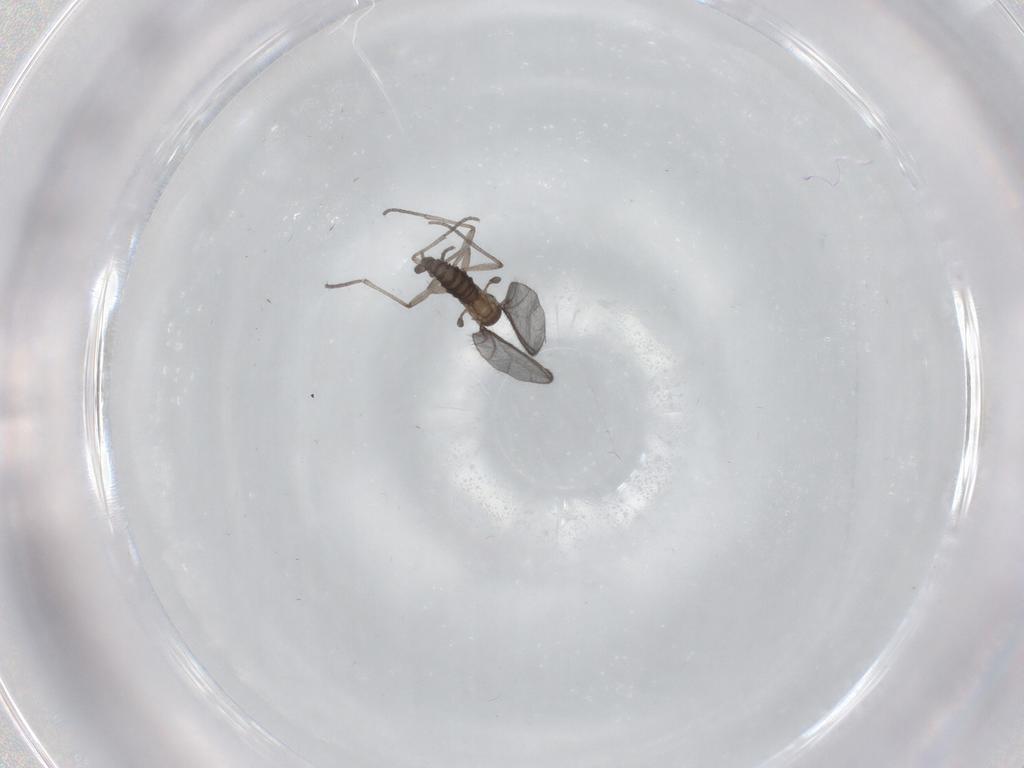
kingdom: Animalia
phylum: Arthropoda
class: Insecta
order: Diptera
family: Sciaridae
